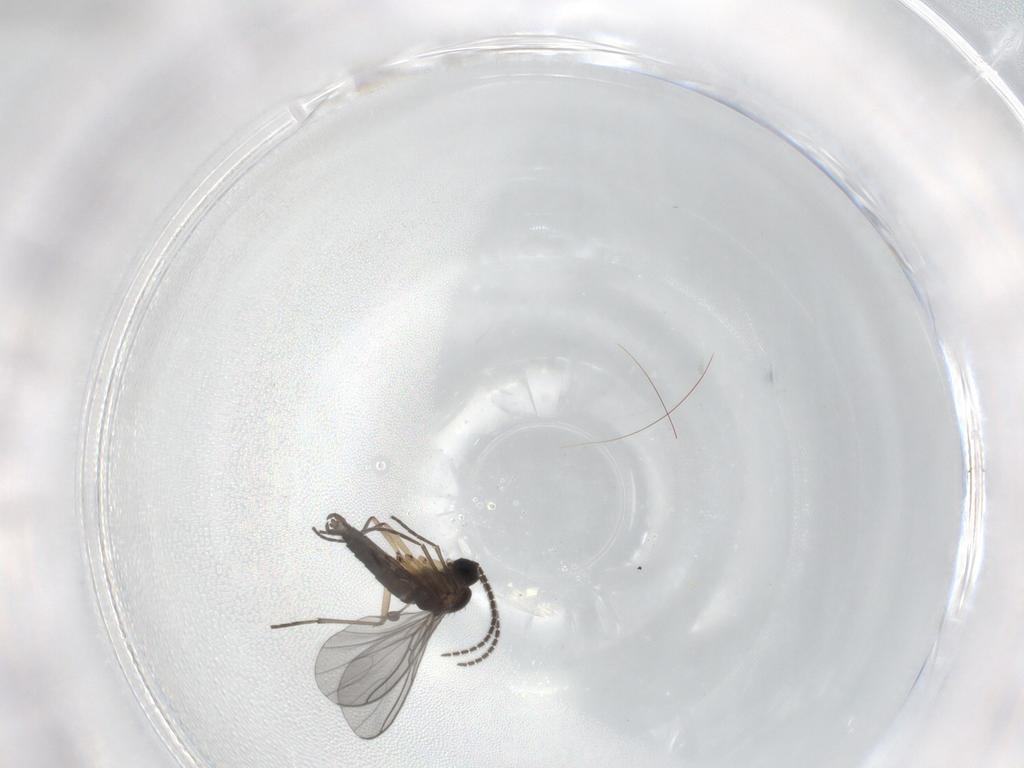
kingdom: Animalia
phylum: Arthropoda
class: Insecta
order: Diptera
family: Sciaridae
